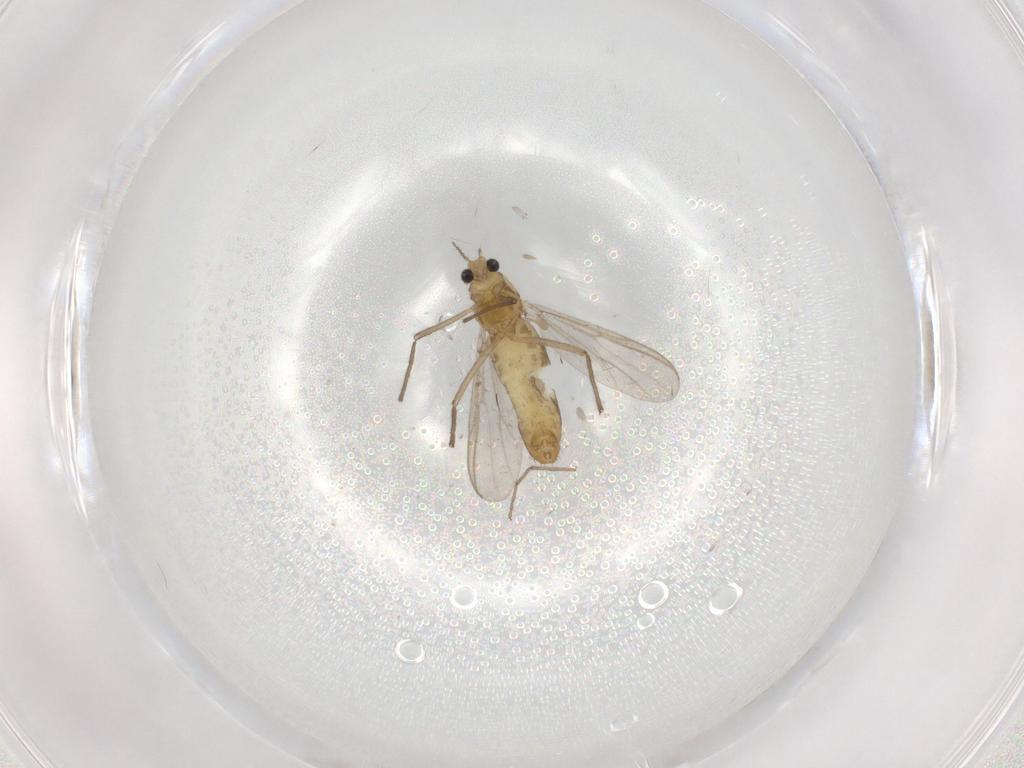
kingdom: Animalia
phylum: Arthropoda
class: Insecta
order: Diptera
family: Chironomidae
